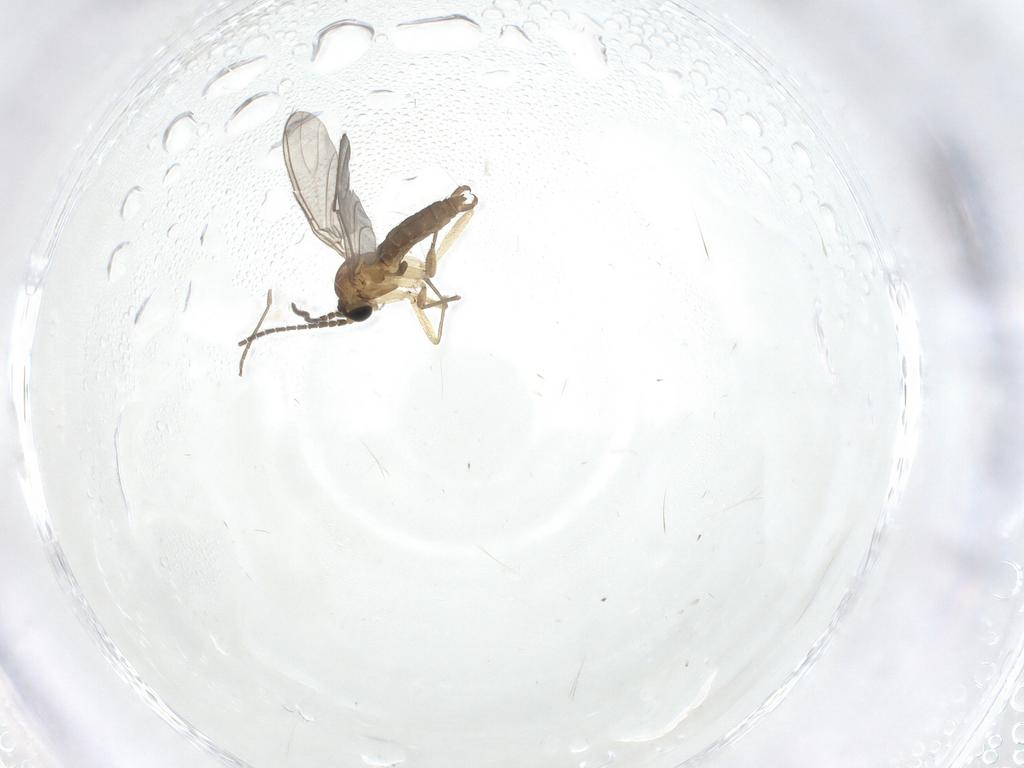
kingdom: Animalia
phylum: Arthropoda
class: Insecta
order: Diptera
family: Sciaridae
